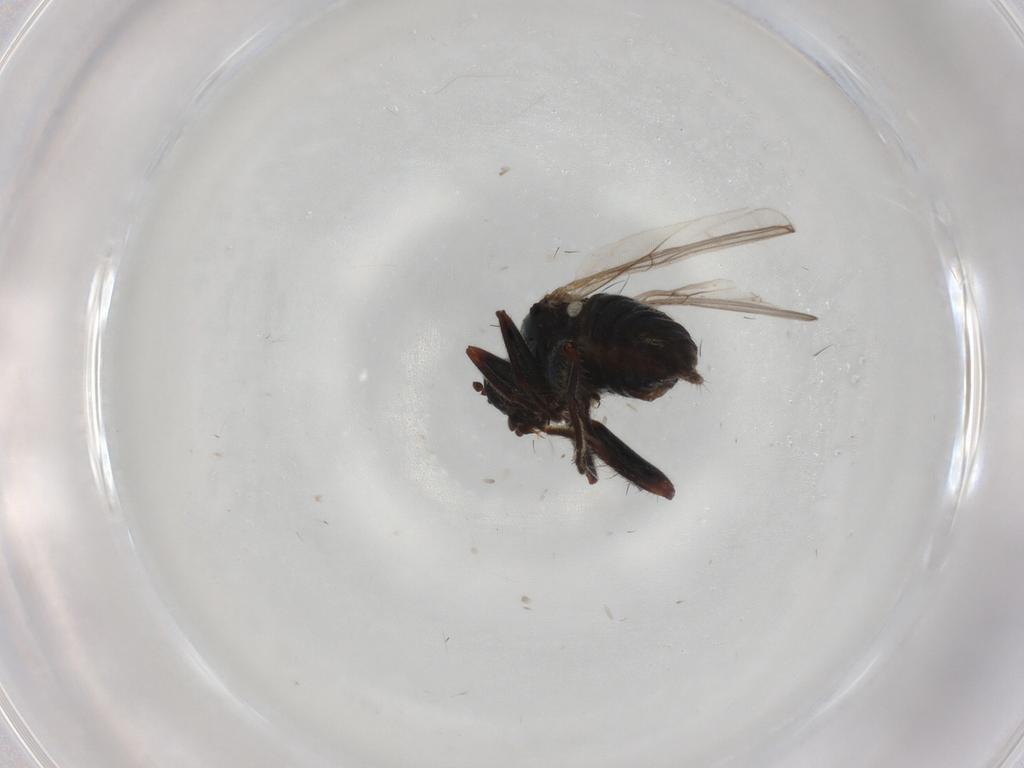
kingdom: Animalia
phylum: Arthropoda
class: Insecta
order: Diptera
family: Hybotidae
